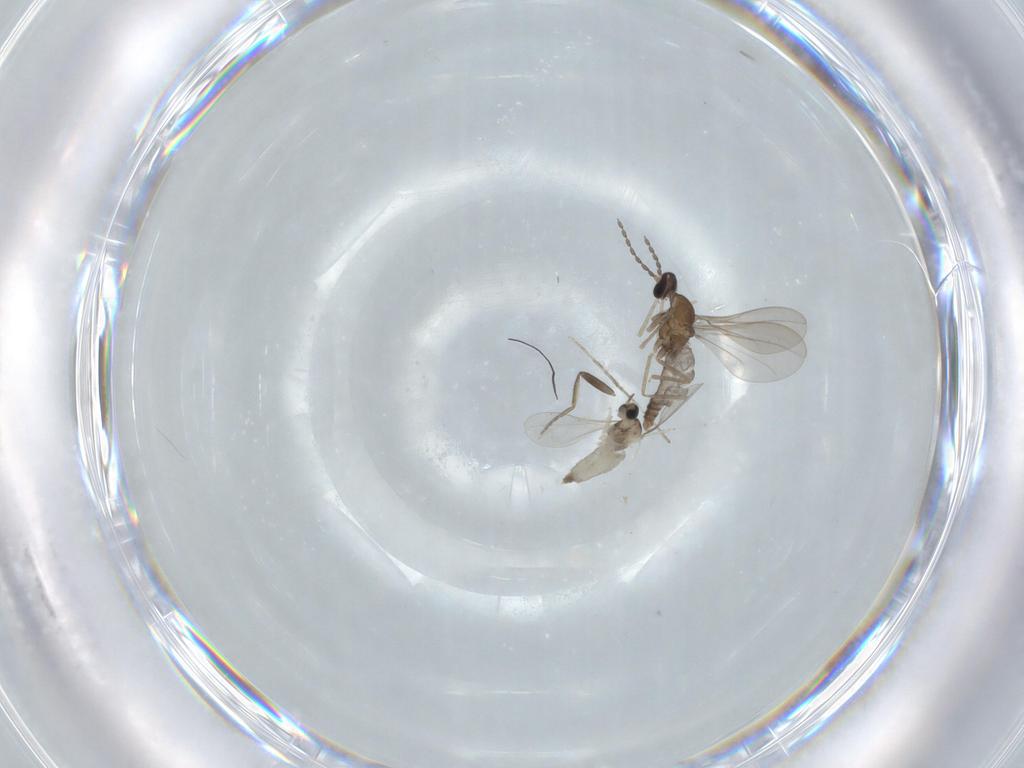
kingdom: Animalia
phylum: Arthropoda
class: Insecta
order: Diptera
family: Cecidomyiidae
